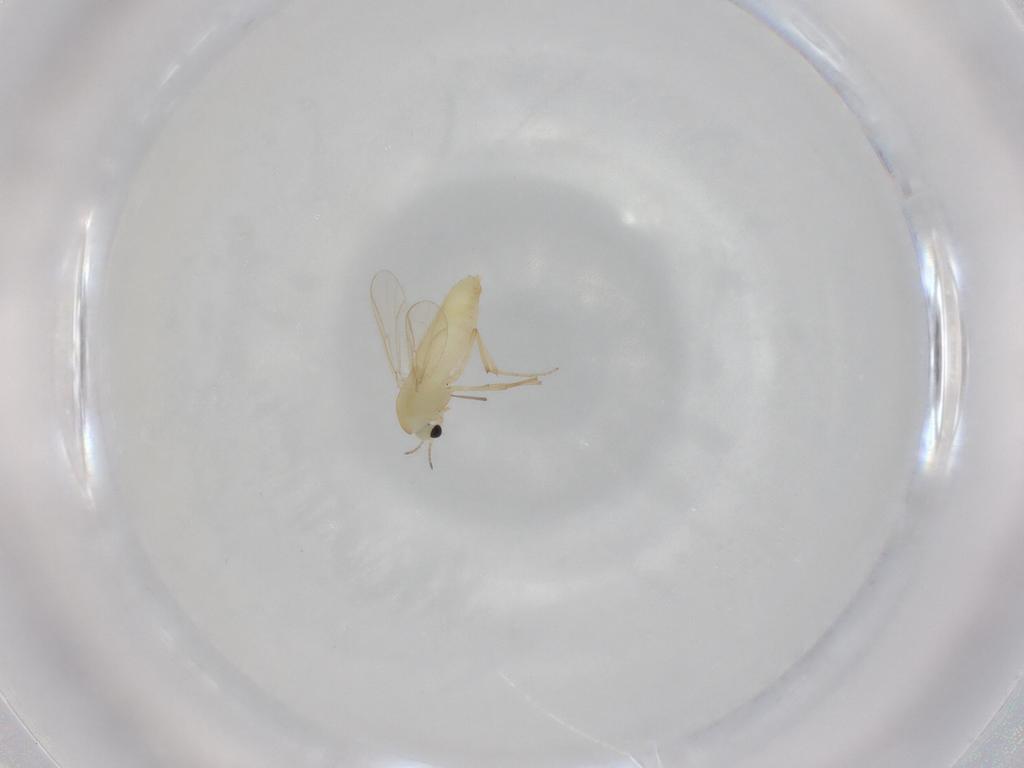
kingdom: Animalia
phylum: Arthropoda
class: Insecta
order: Diptera
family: Chironomidae
